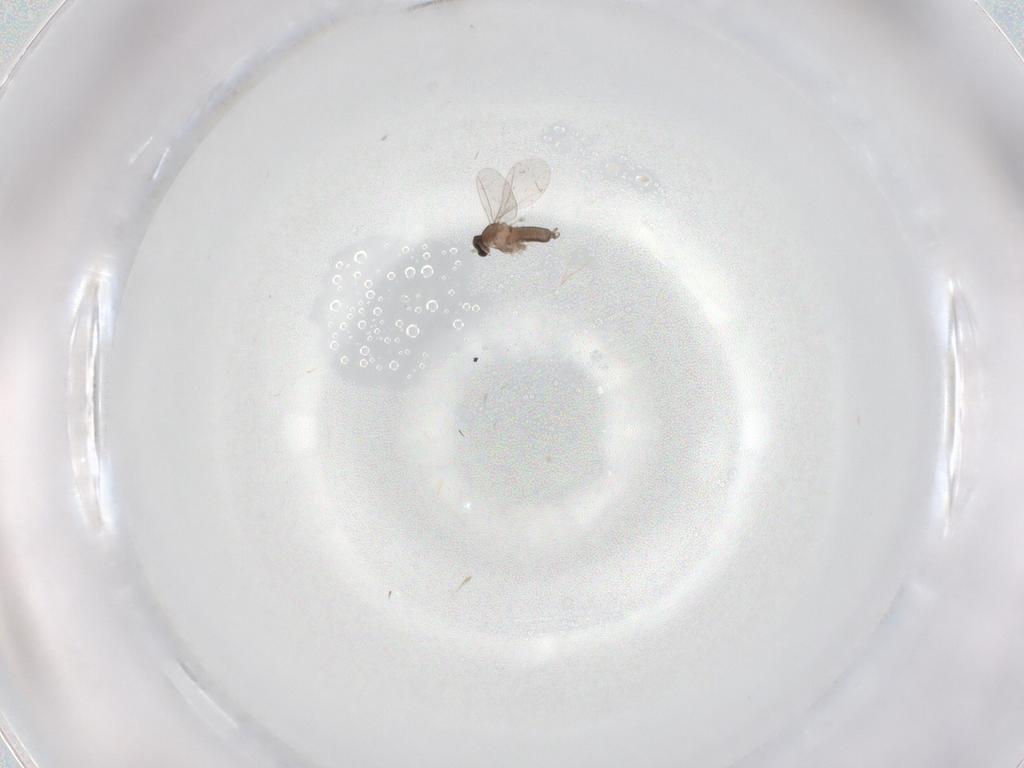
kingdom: Animalia
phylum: Arthropoda
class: Insecta
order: Diptera
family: Cecidomyiidae
